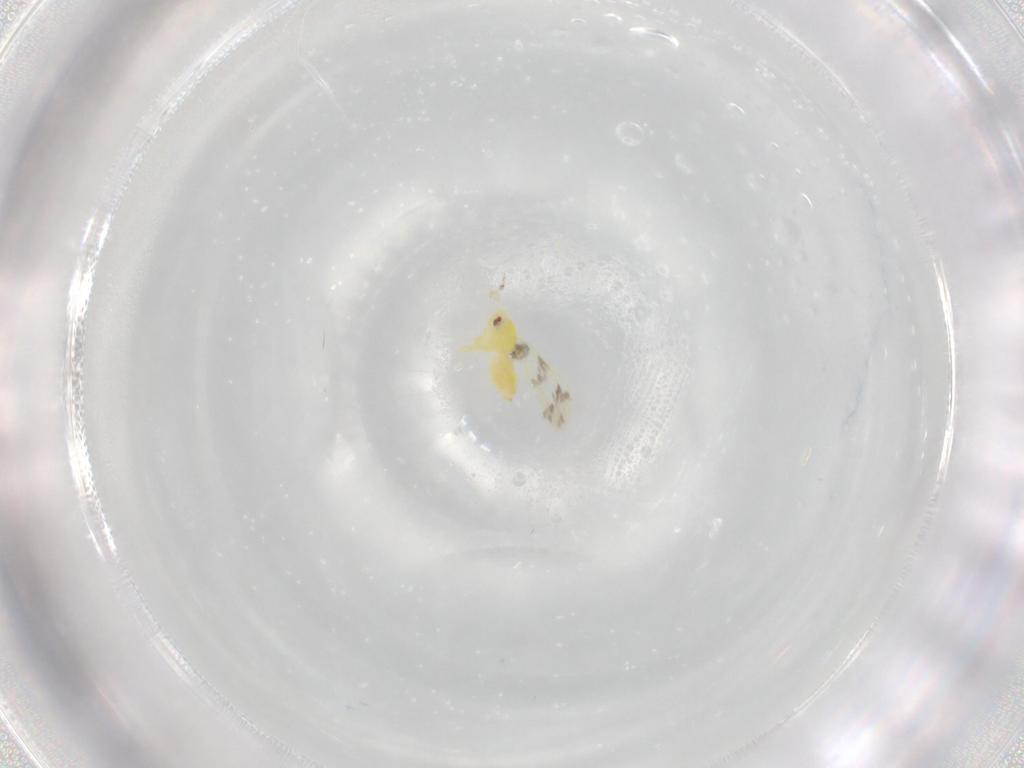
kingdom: Animalia
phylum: Arthropoda
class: Insecta
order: Hemiptera
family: Aleyrodidae
